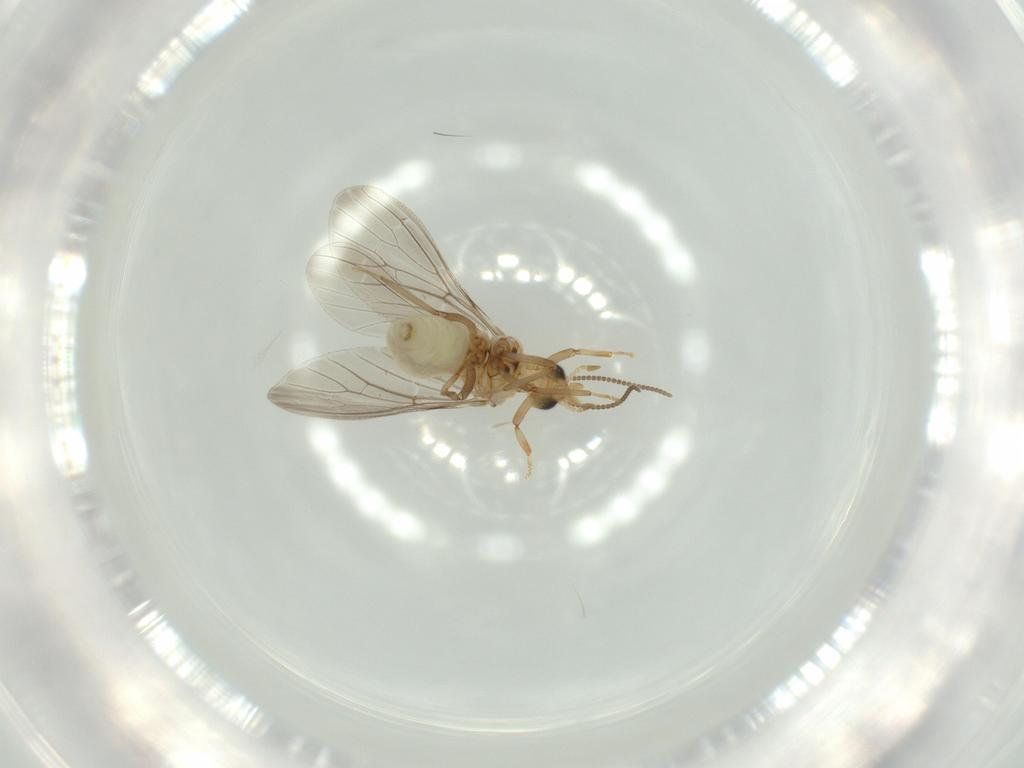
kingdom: Animalia
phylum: Arthropoda
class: Insecta
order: Neuroptera
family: Coniopterygidae
